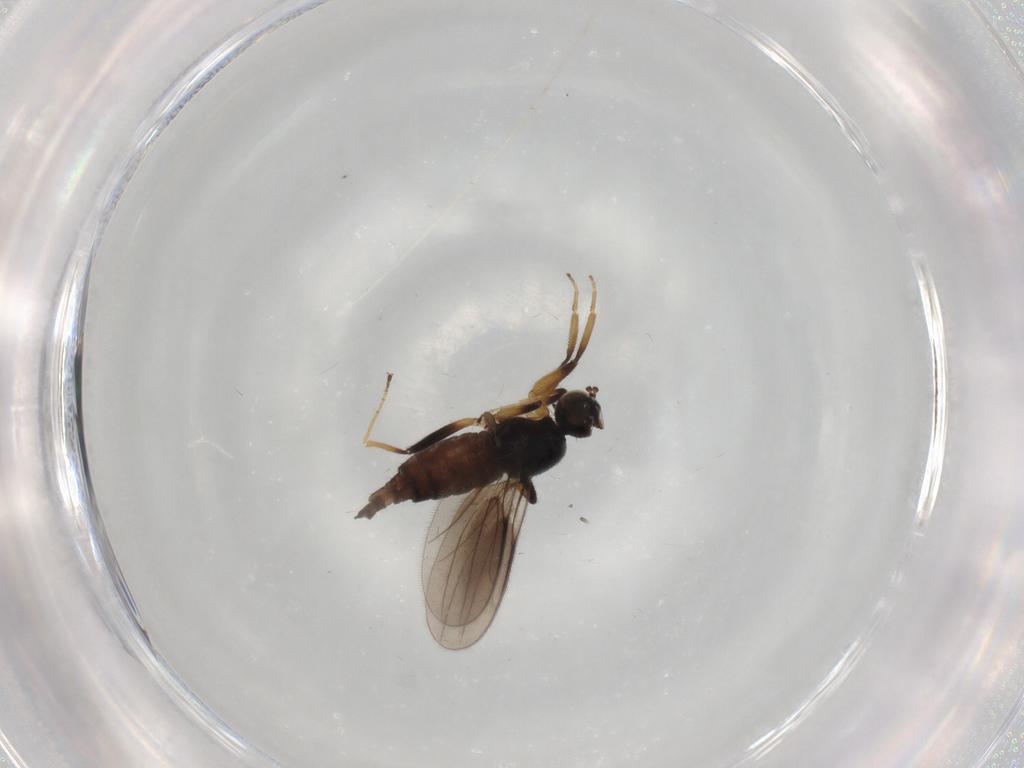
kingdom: Animalia
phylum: Arthropoda
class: Insecta
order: Diptera
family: Hybotidae
